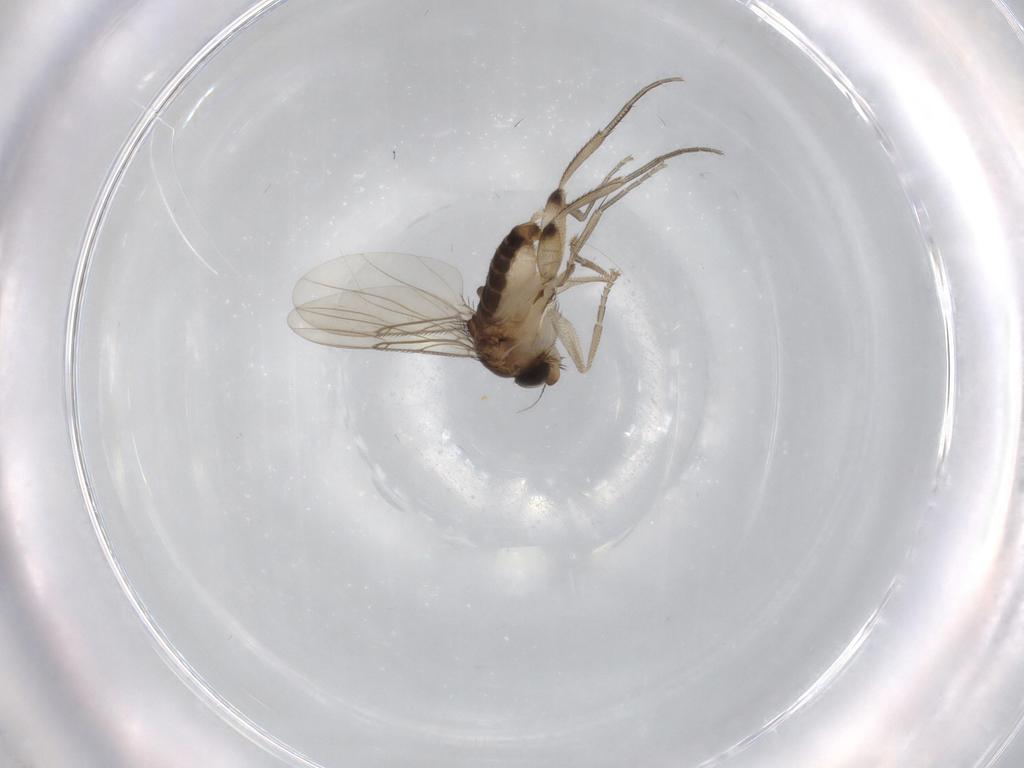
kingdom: Animalia
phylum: Arthropoda
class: Insecta
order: Diptera
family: Phoridae
